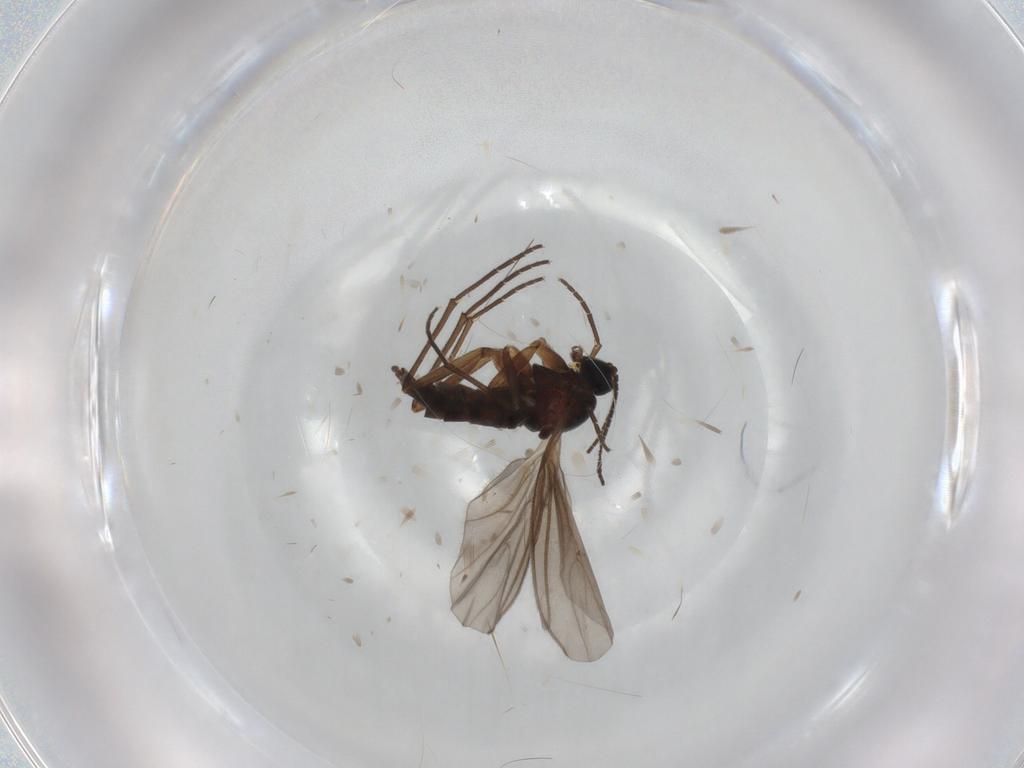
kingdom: Animalia
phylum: Arthropoda
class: Insecta
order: Diptera
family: Sciaridae
